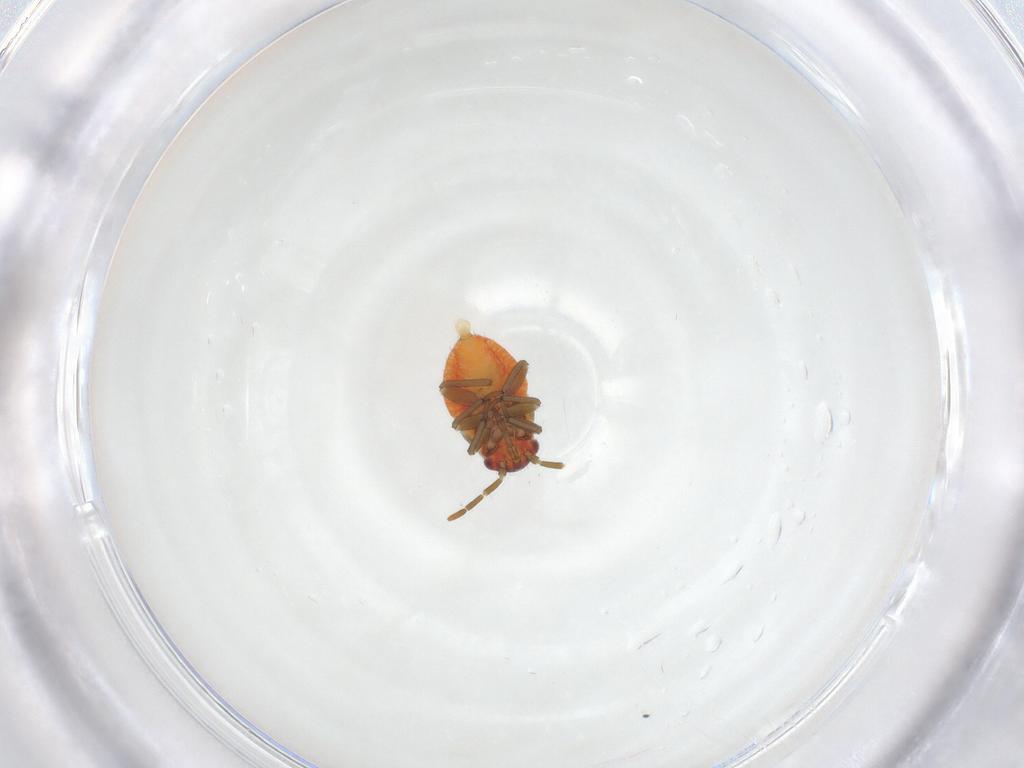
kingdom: Animalia
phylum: Arthropoda
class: Insecta
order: Hemiptera
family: Miridae
